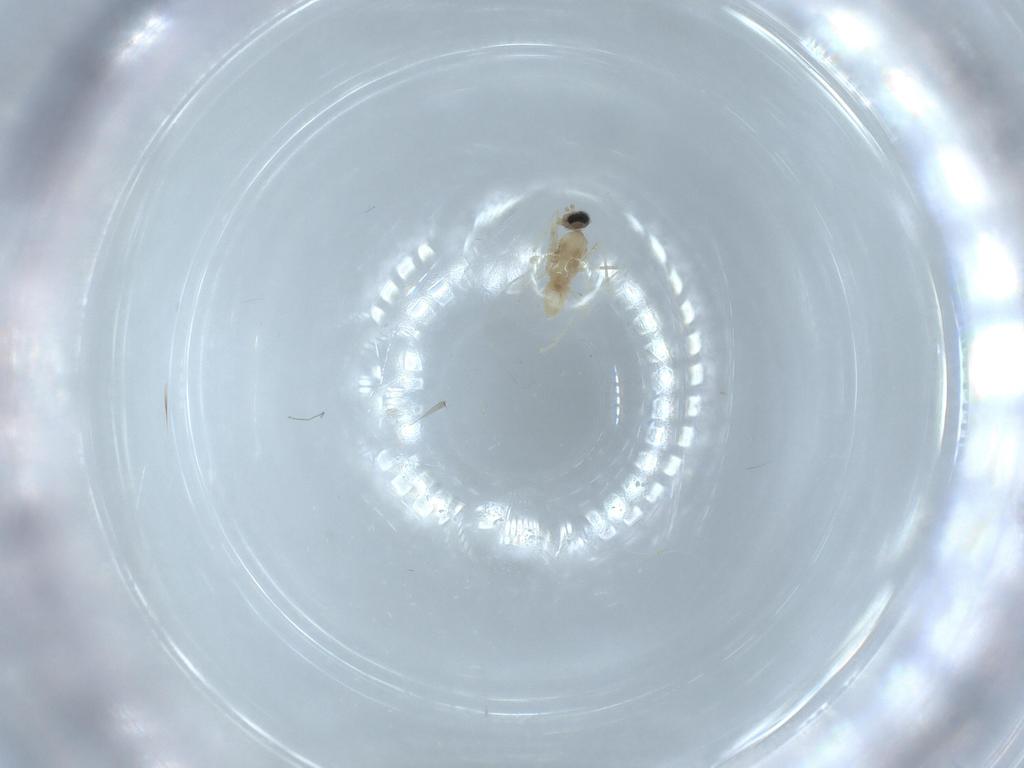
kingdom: Animalia
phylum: Arthropoda
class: Insecta
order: Diptera
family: Cecidomyiidae
